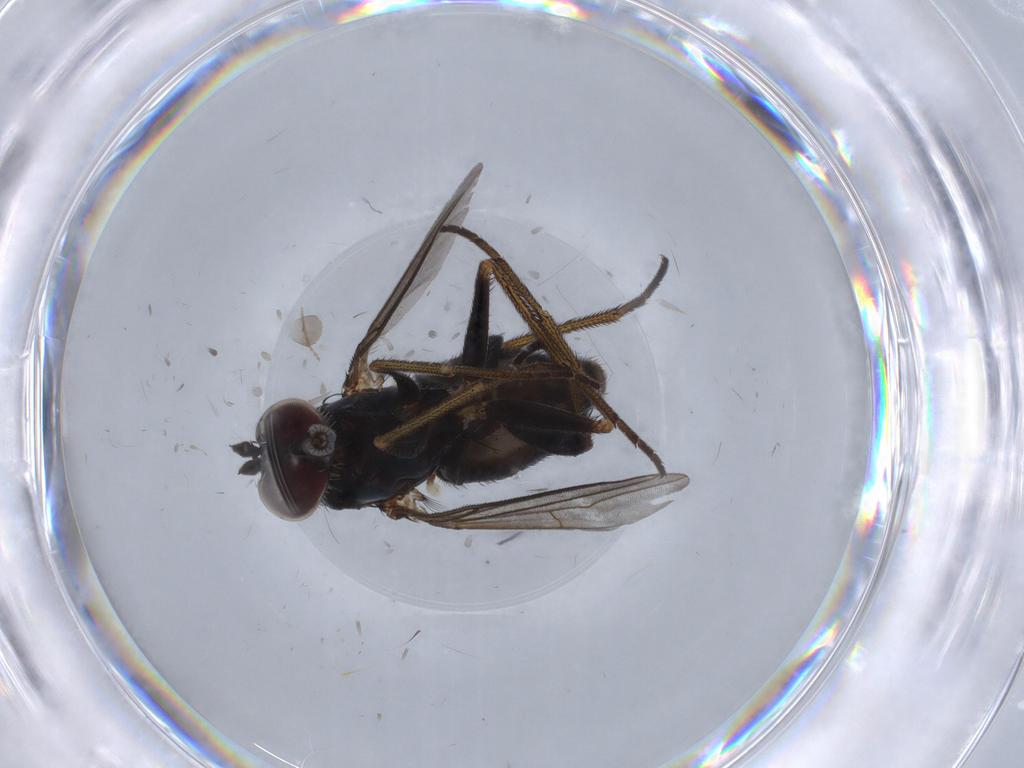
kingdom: Animalia
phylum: Arthropoda
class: Insecta
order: Diptera
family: Dolichopodidae
